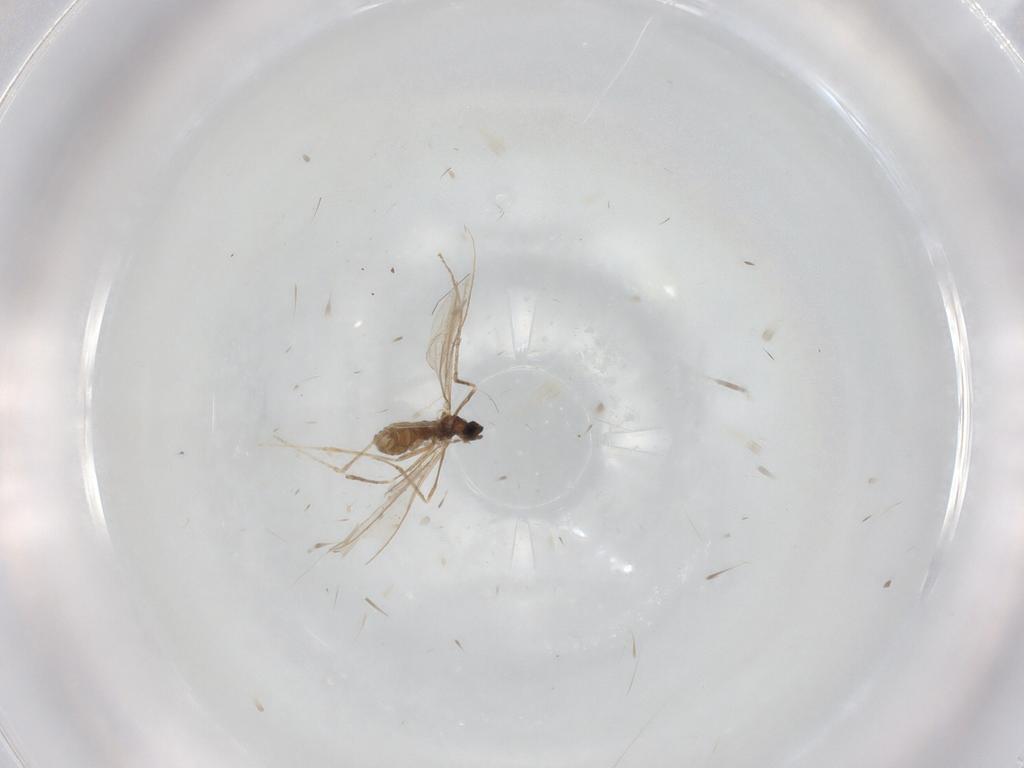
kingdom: Animalia
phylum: Arthropoda
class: Insecta
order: Diptera
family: Cecidomyiidae
